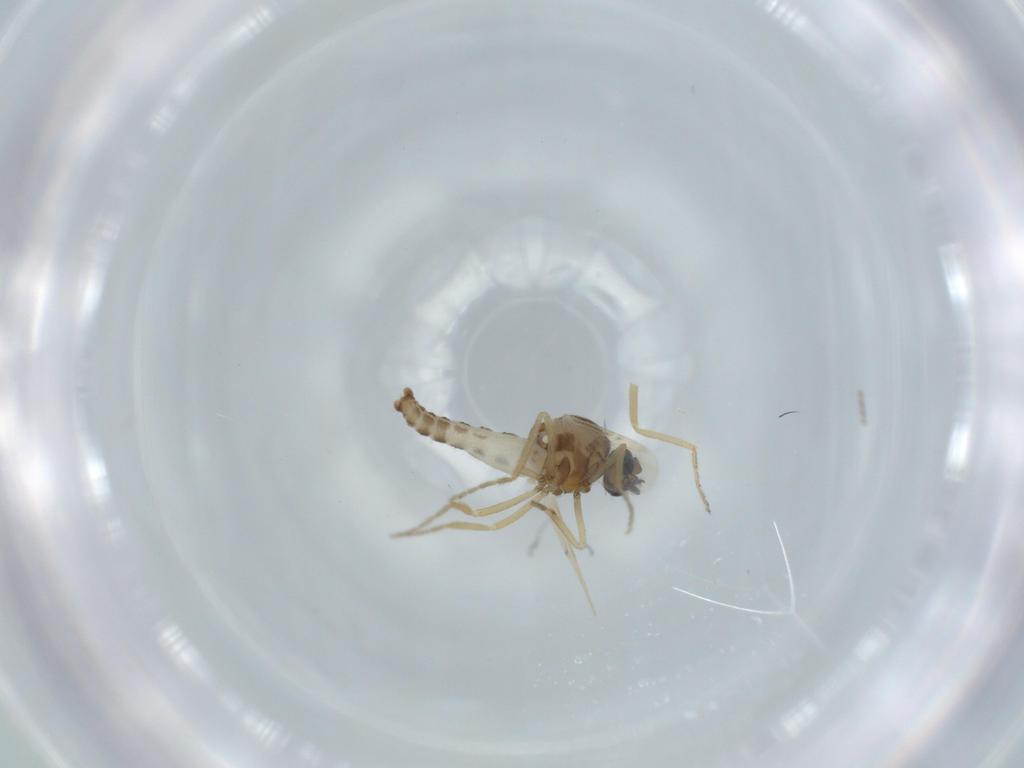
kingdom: Animalia
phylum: Arthropoda
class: Insecta
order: Diptera
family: Ceratopogonidae
